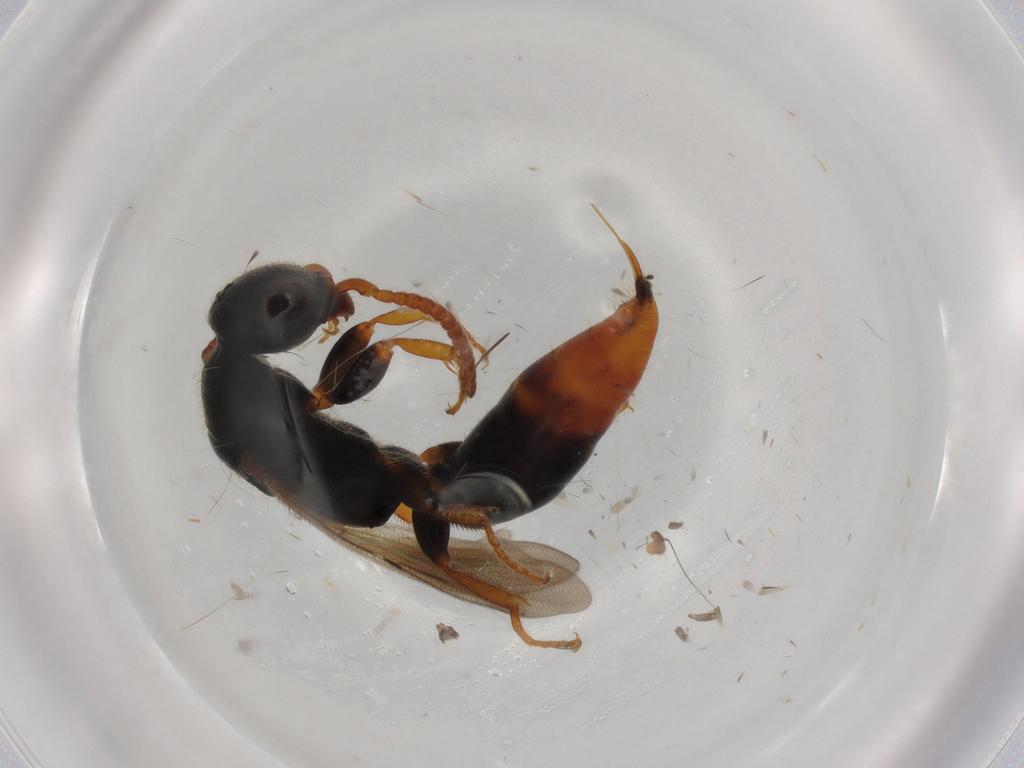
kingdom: Animalia
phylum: Arthropoda
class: Insecta
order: Hymenoptera
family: Bethylidae
